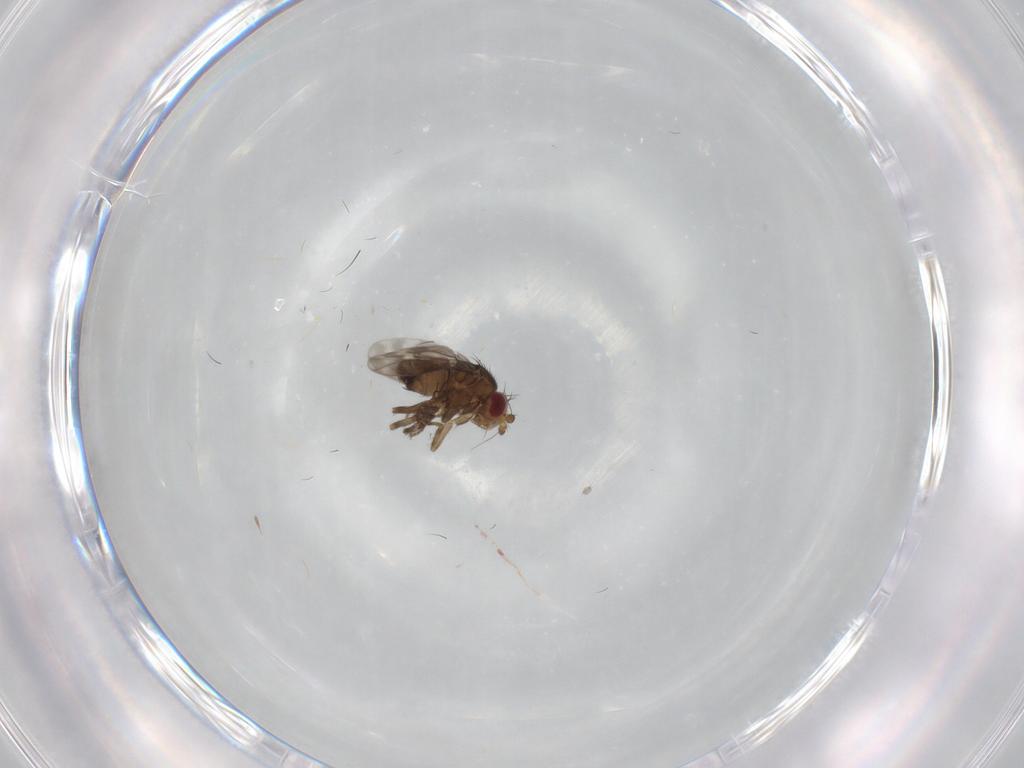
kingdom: Animalia
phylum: Arthropoda
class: Insecta
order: Diptera
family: Sphaeroceridae
